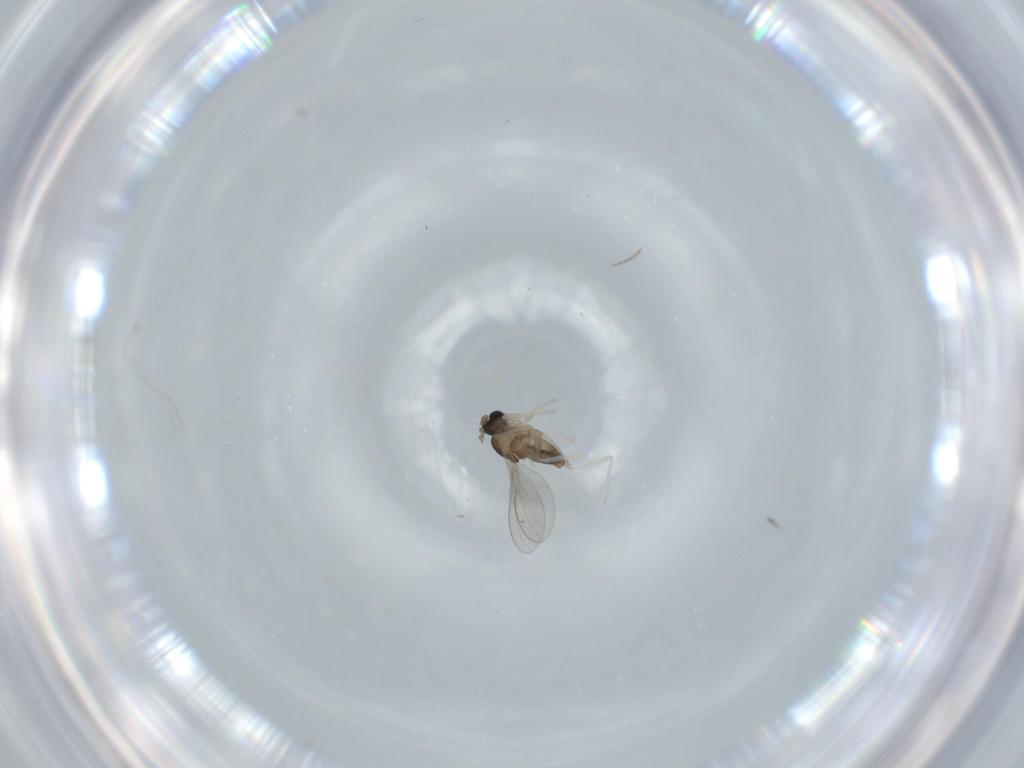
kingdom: Animalia
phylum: Arthropoda
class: Insecta
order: Diptera
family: Cecidomyiidae
